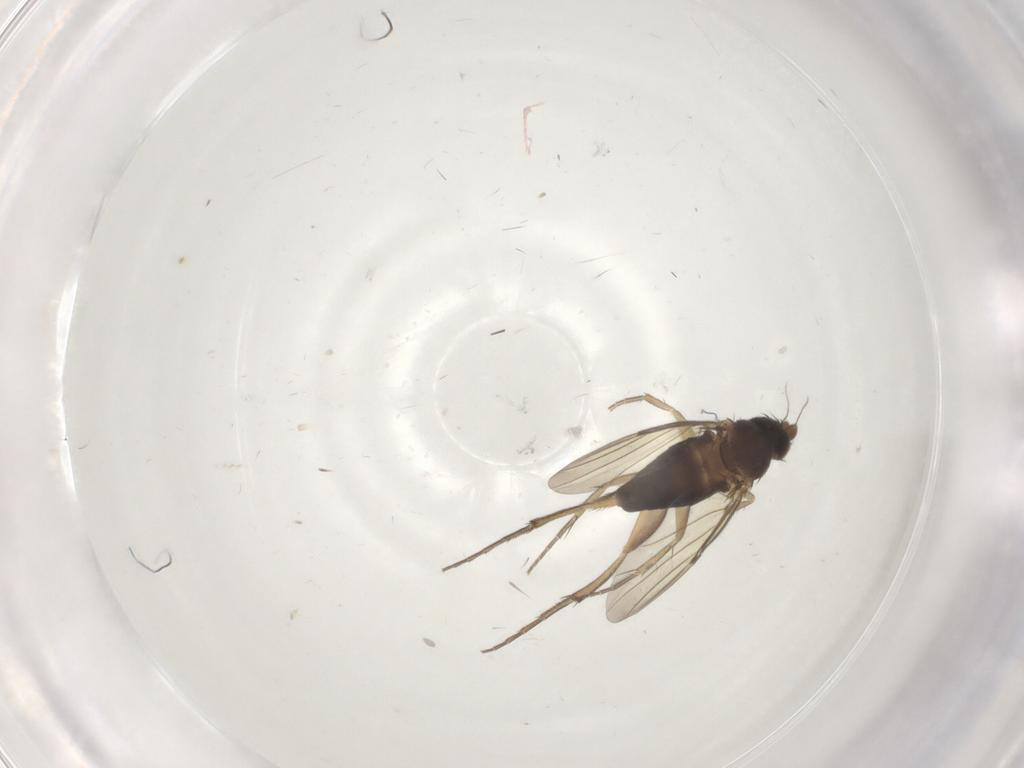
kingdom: Animalia
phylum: Arthropoda
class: Insecta
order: Diptera
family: Phoridae
